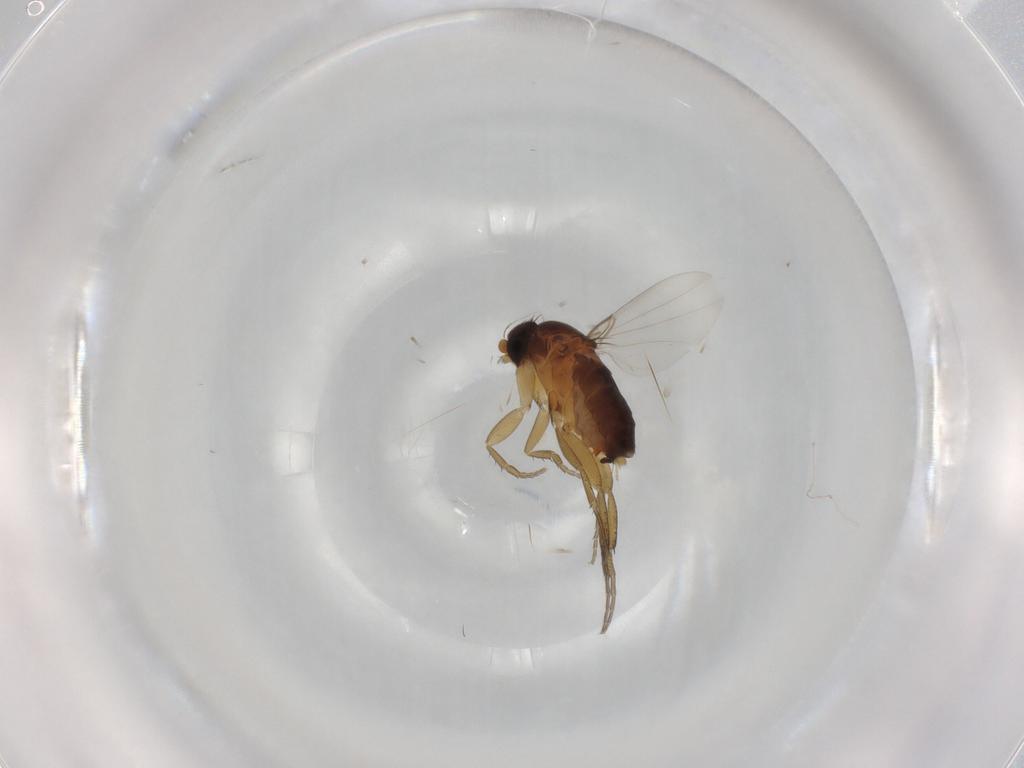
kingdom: Animalia
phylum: Arthropoda
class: Insecta
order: Diptera
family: Phoridae
